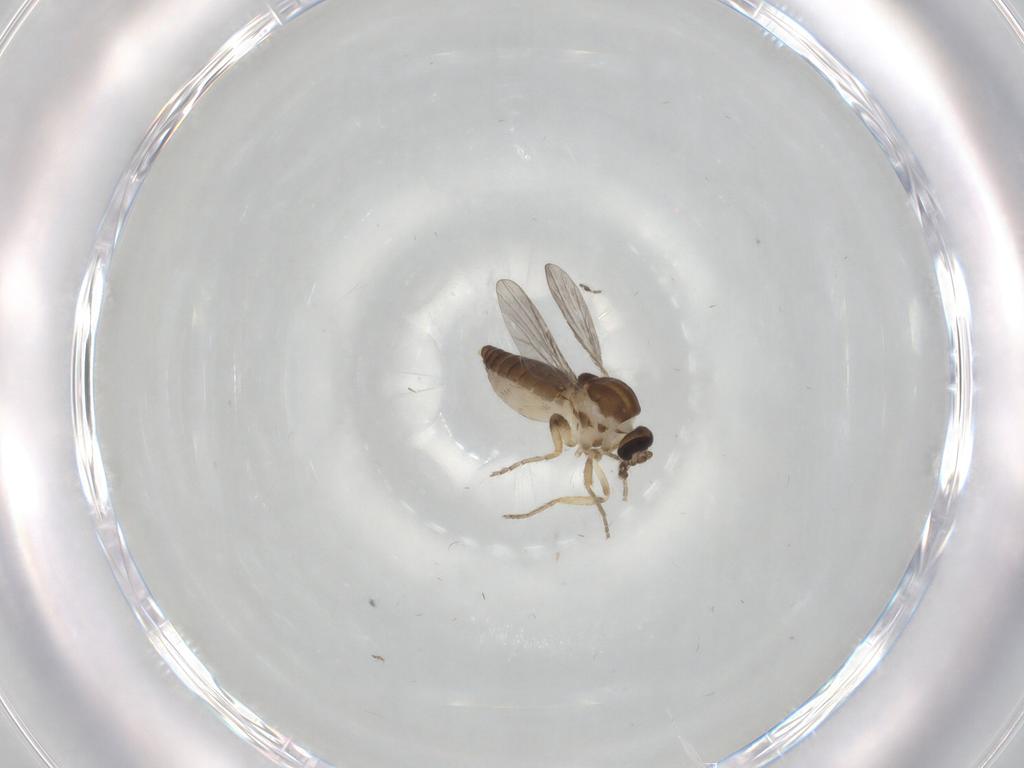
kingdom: Animalia
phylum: Arthropoda
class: Insecta
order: Diptera
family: Ceratopogonidae
